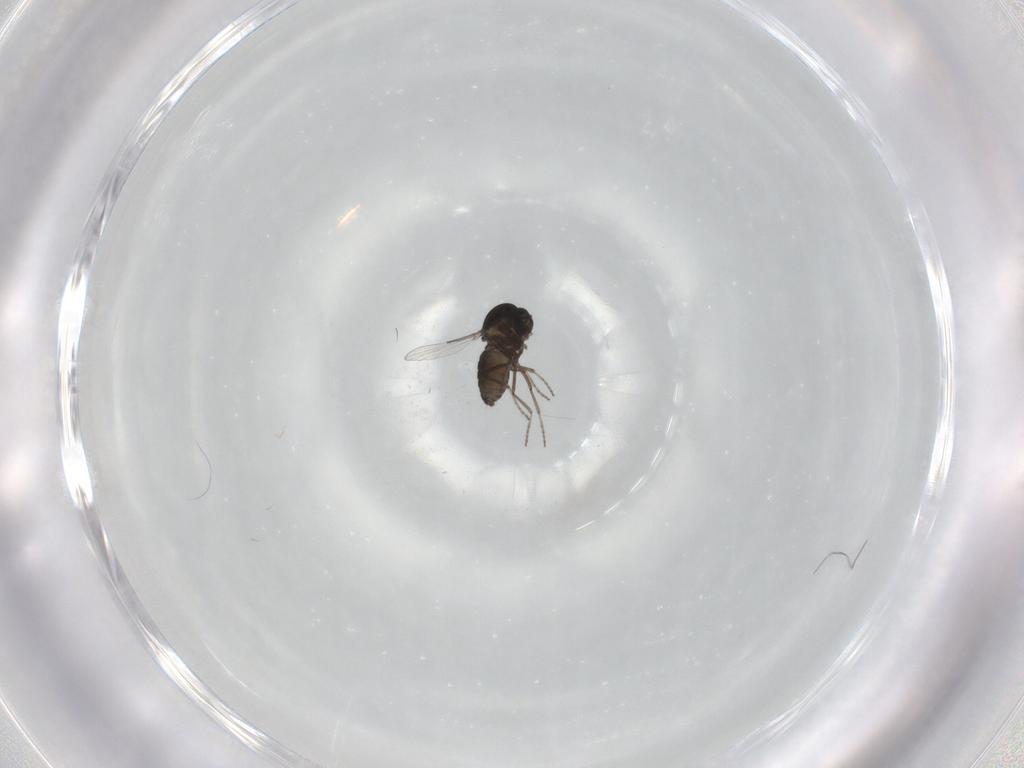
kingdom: Animalia
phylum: Arthropoda
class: Insecta
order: Diptera
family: Ceratopogonidae
